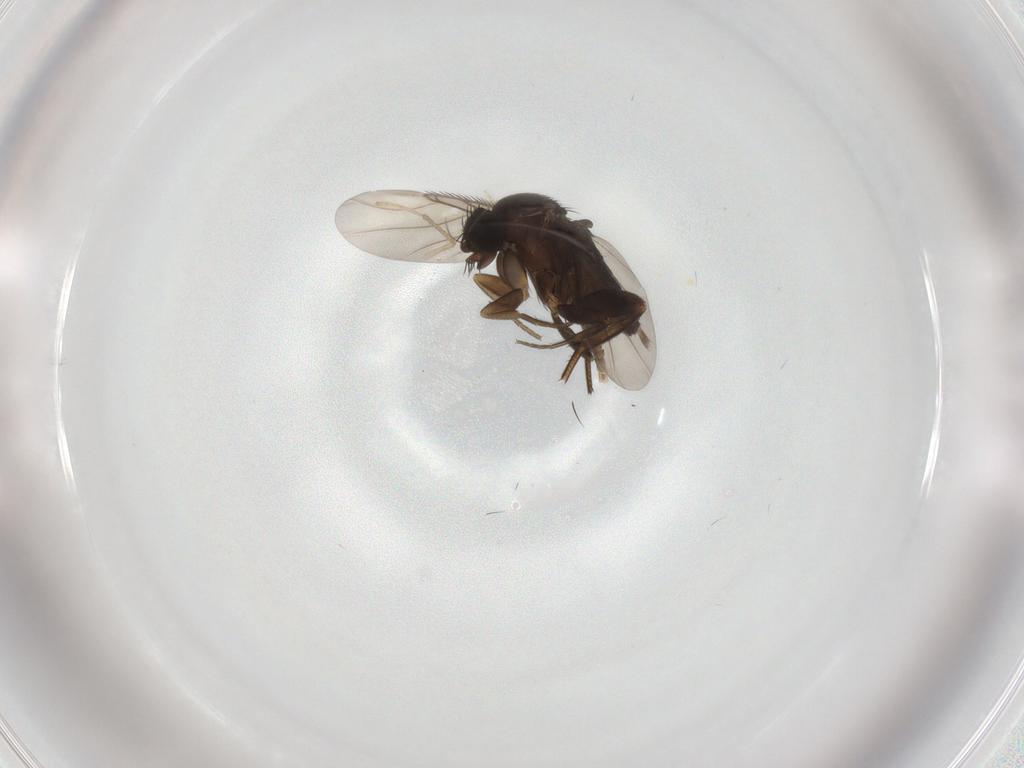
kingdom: Animalia
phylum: Arthropoda
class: Insecta
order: Diptera
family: Phoridae
